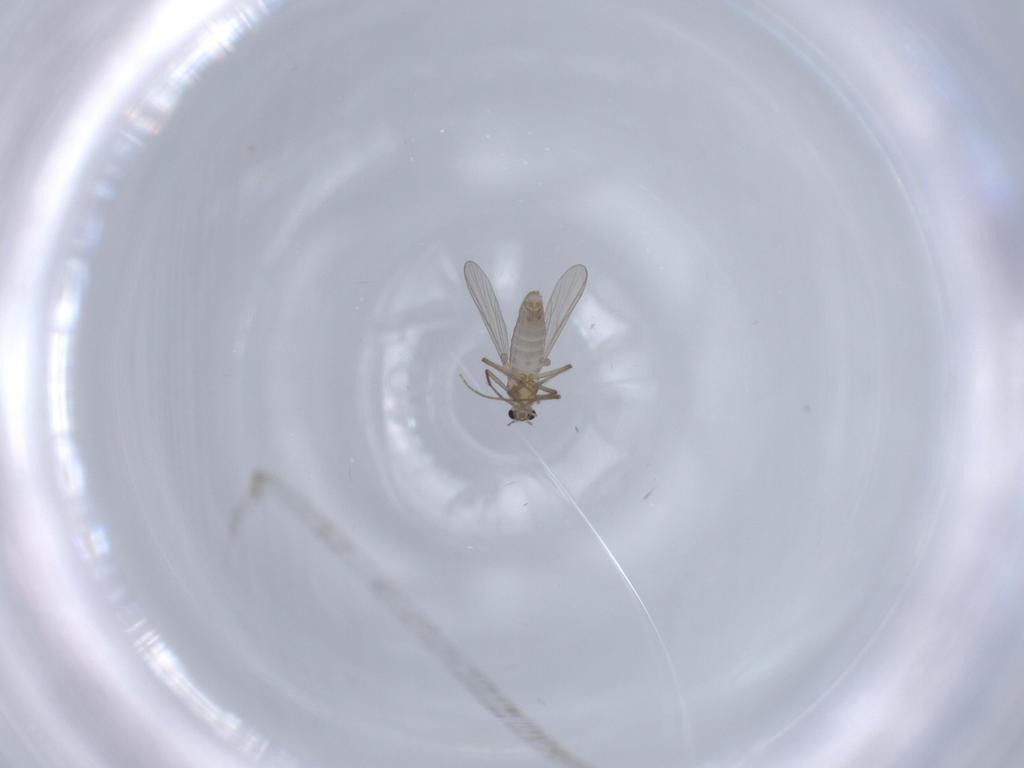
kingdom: Animalia
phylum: Arthropoda
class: Insecta
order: Diptera
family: Chironomidae
